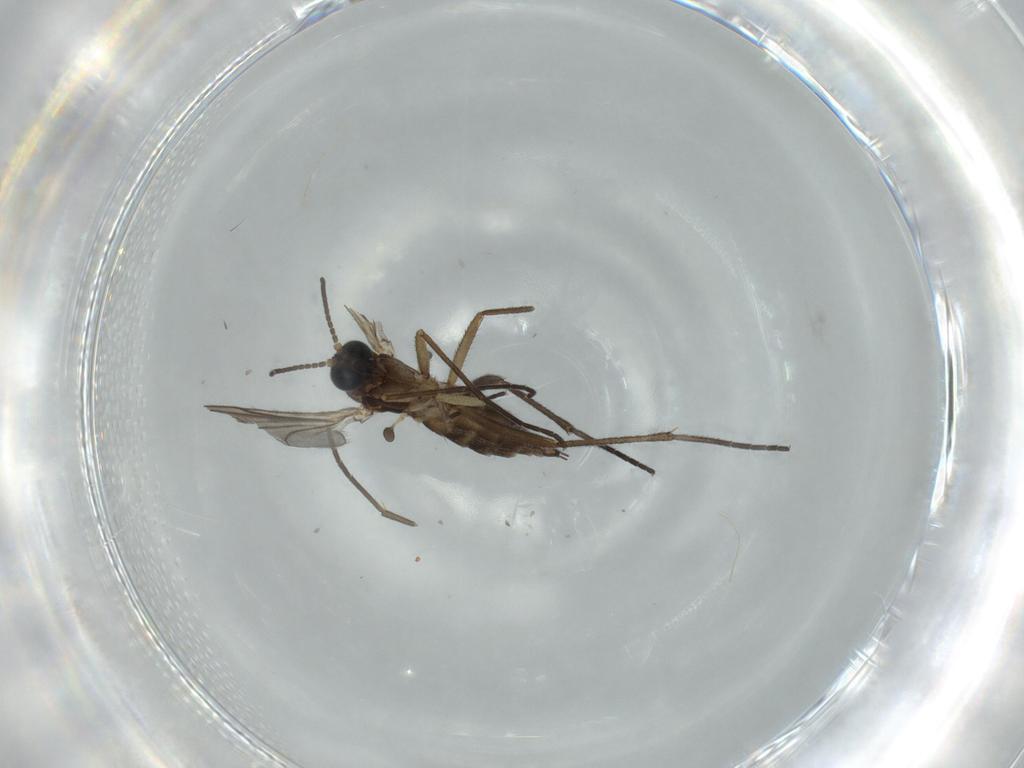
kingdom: Animalia
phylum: Arthropoda
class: Insecta
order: Diptera
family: Sciaridae
